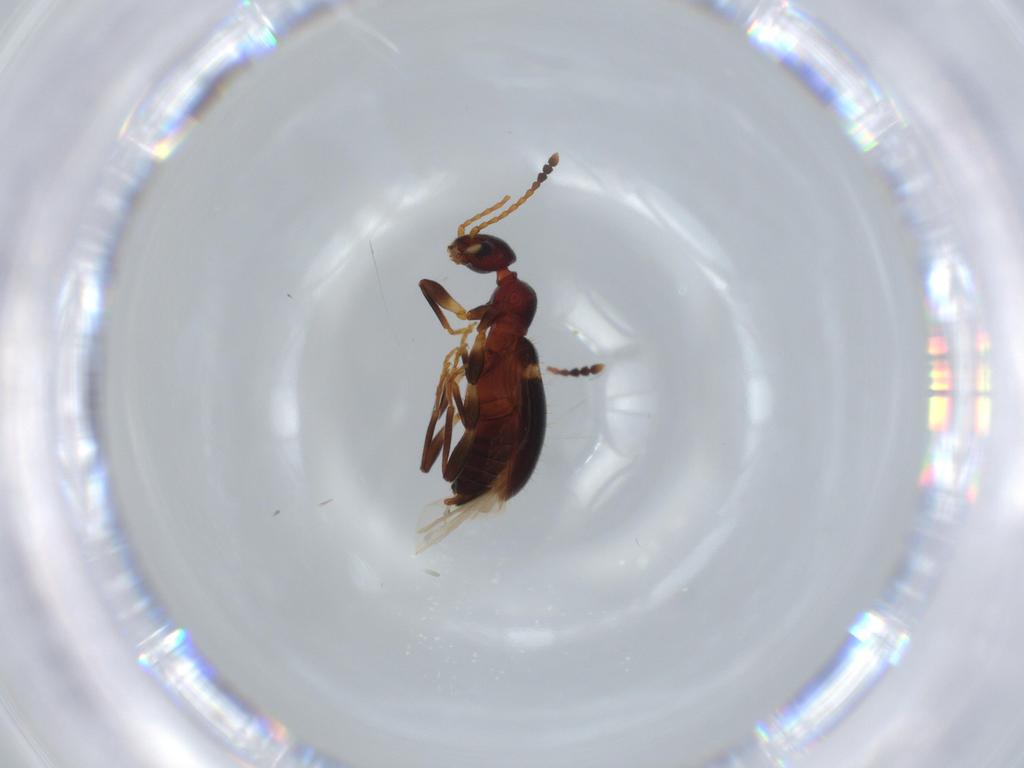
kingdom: Animalia
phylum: Arthropoda
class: Insecta
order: Coleoptera
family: Anthicidae
